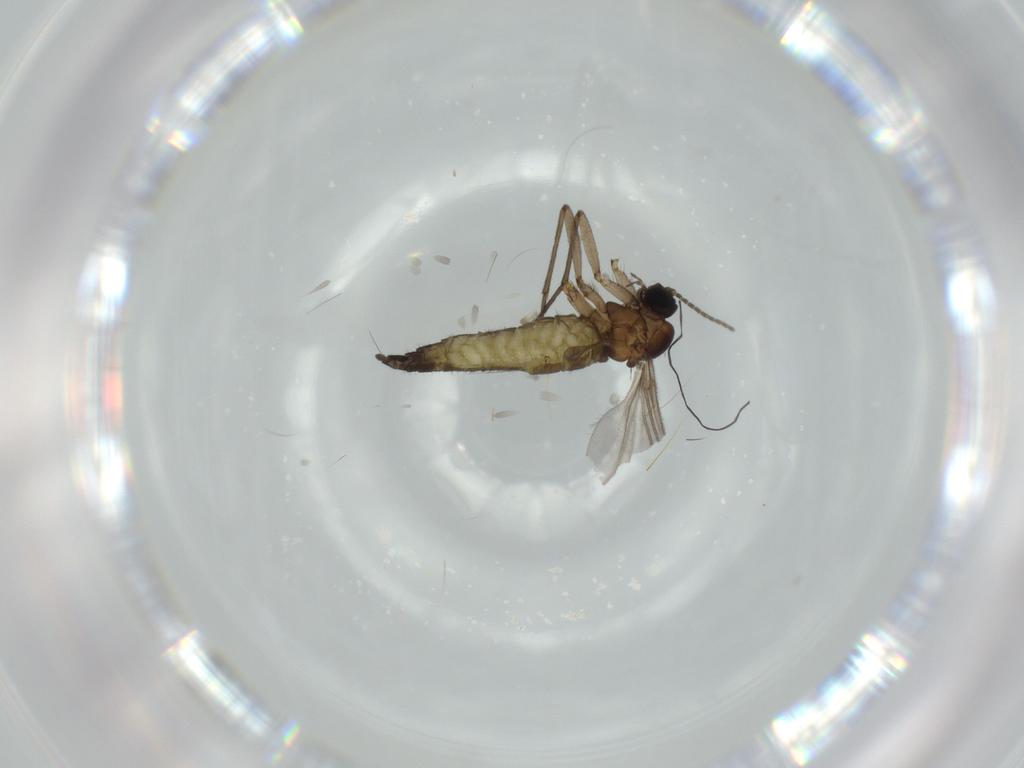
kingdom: Animalia
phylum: Arthropoda
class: Insecta
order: Diptera
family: Sciaridae
